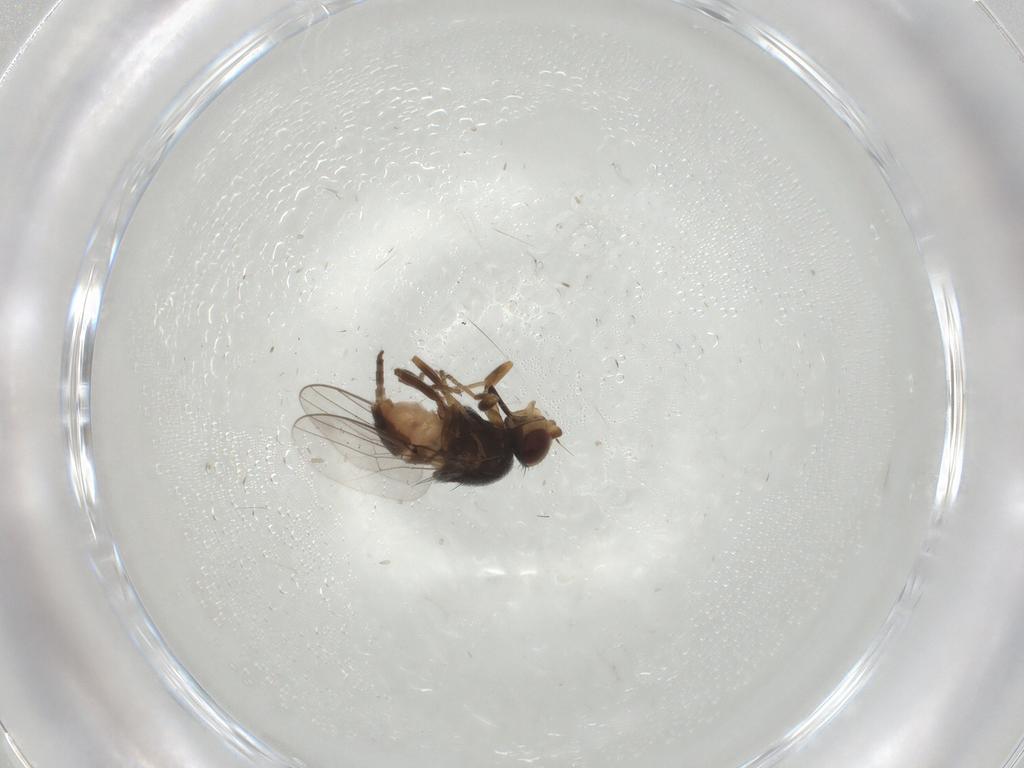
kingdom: Animalia
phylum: Arthropoda
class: Insecta
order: Diptera
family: Chloropidae
